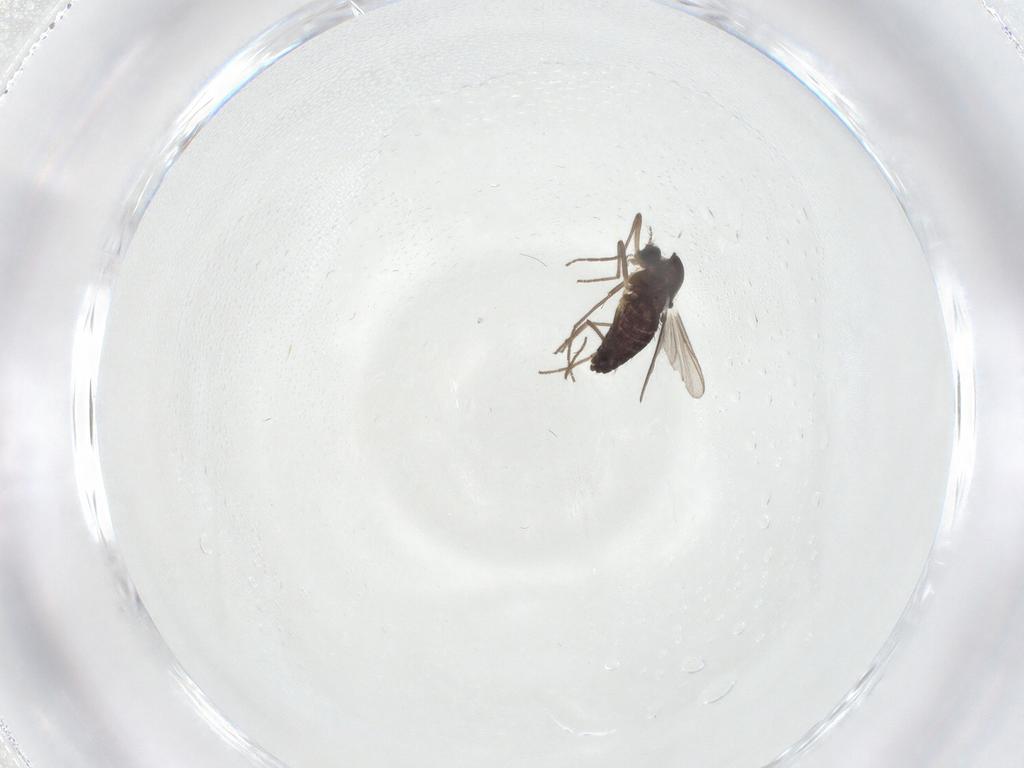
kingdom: Animalia
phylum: Arthropoda
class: Insecta
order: Diptera
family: Chironomidae
